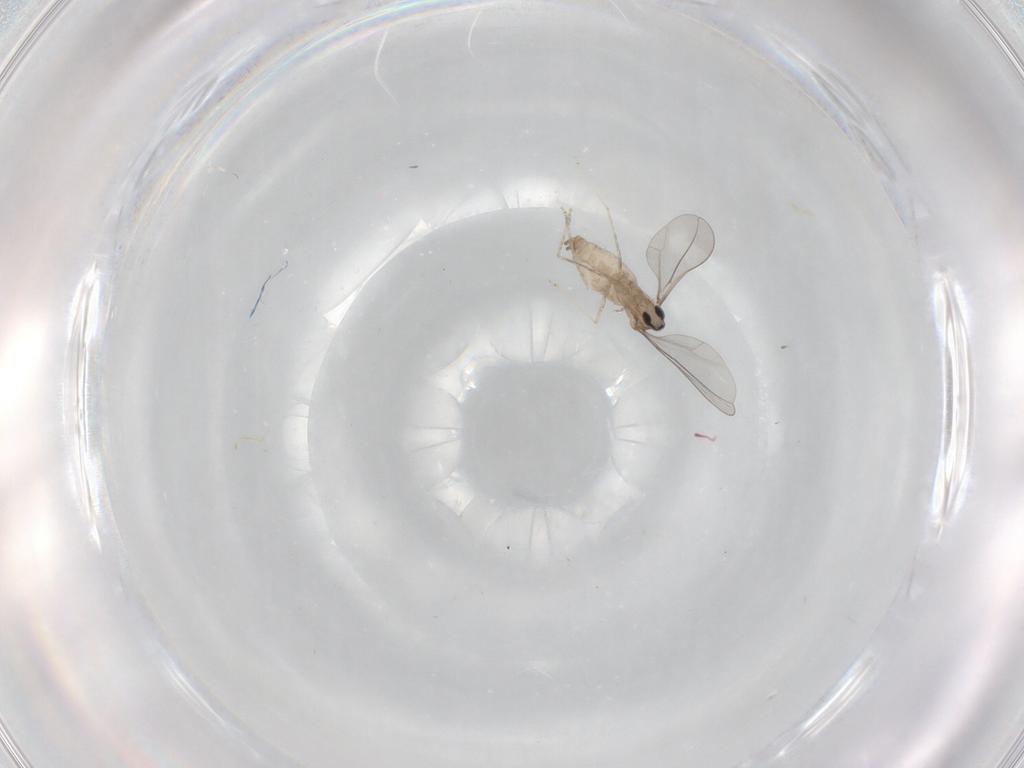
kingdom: Animalia
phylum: Arthropoda
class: Insecta
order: Diptera
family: Cecidomyiidae
